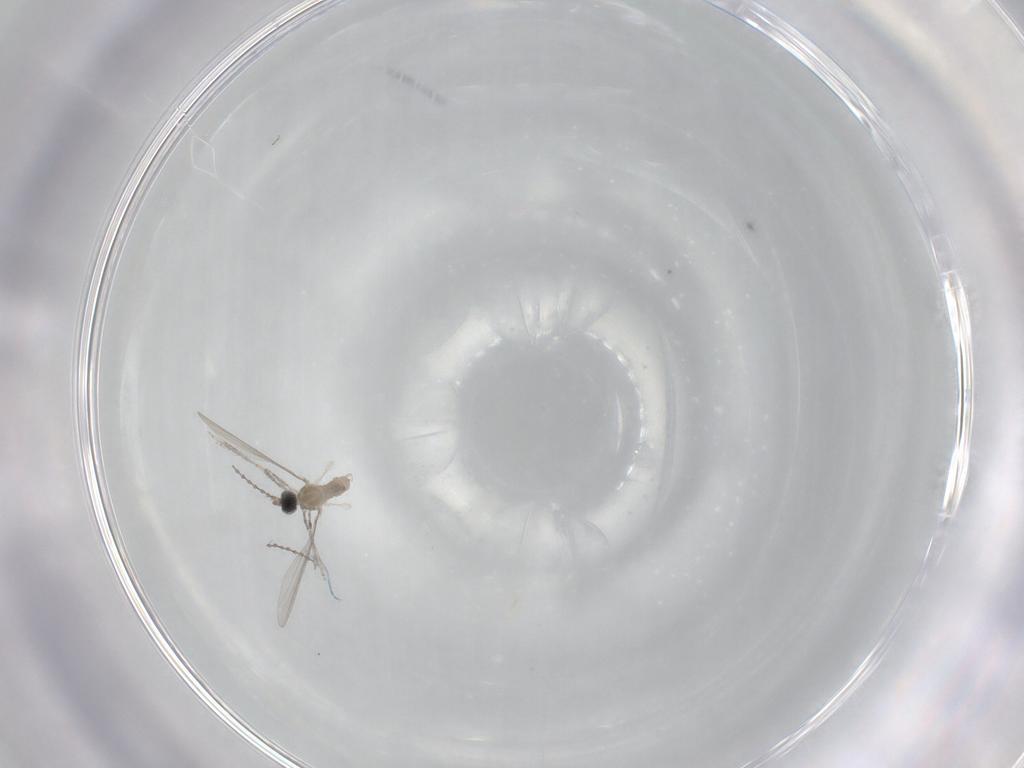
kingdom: Animalia
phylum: Arthropoda
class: Insecta
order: Diptera
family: Cecidomyiidae
